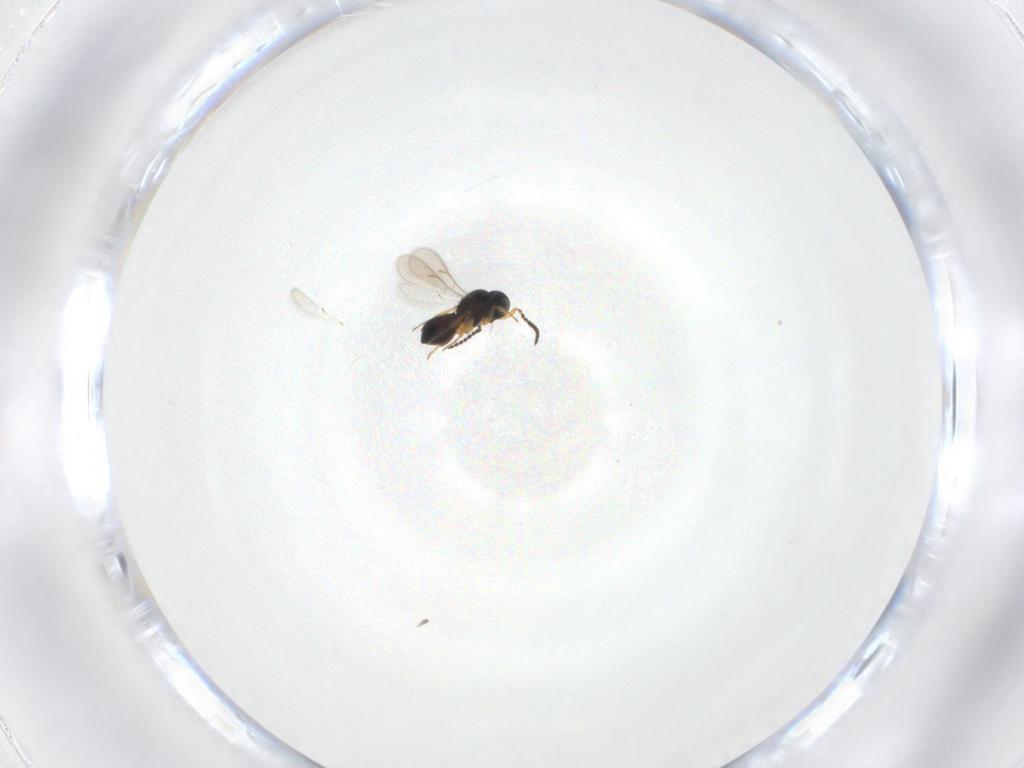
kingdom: Animalia
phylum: Arthropoda
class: Insecta
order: Hymenoptera
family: Scelionidae
